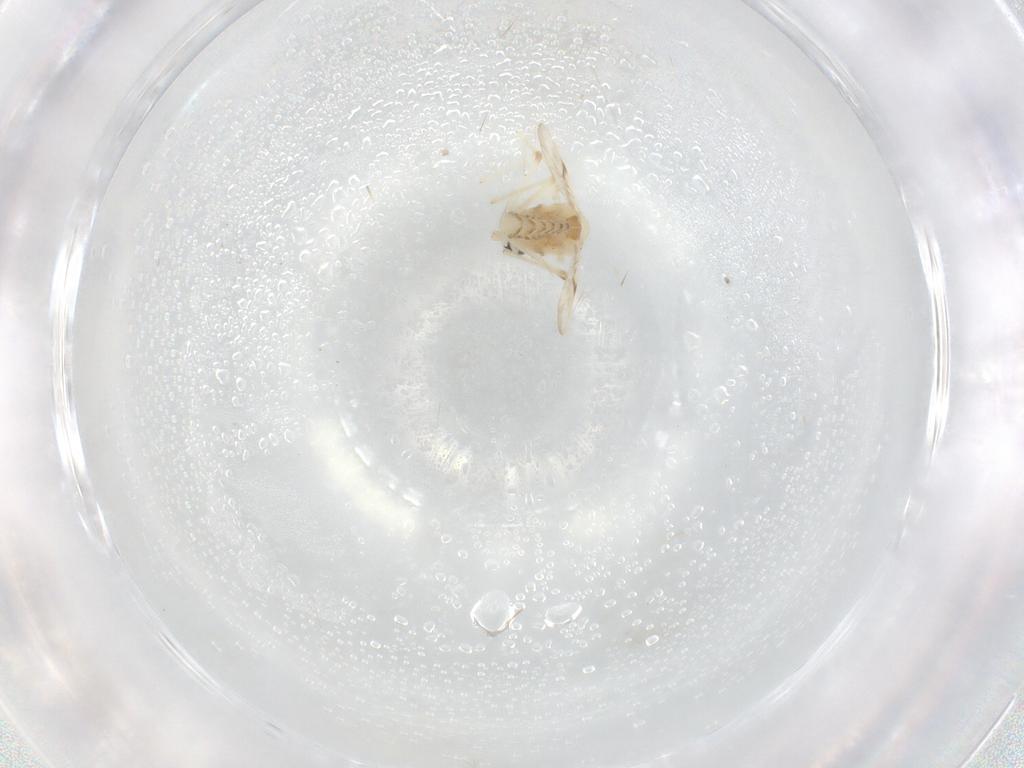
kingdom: Animalia
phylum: Arthropoda
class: Insecta
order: Diptera
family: Chironomidae
